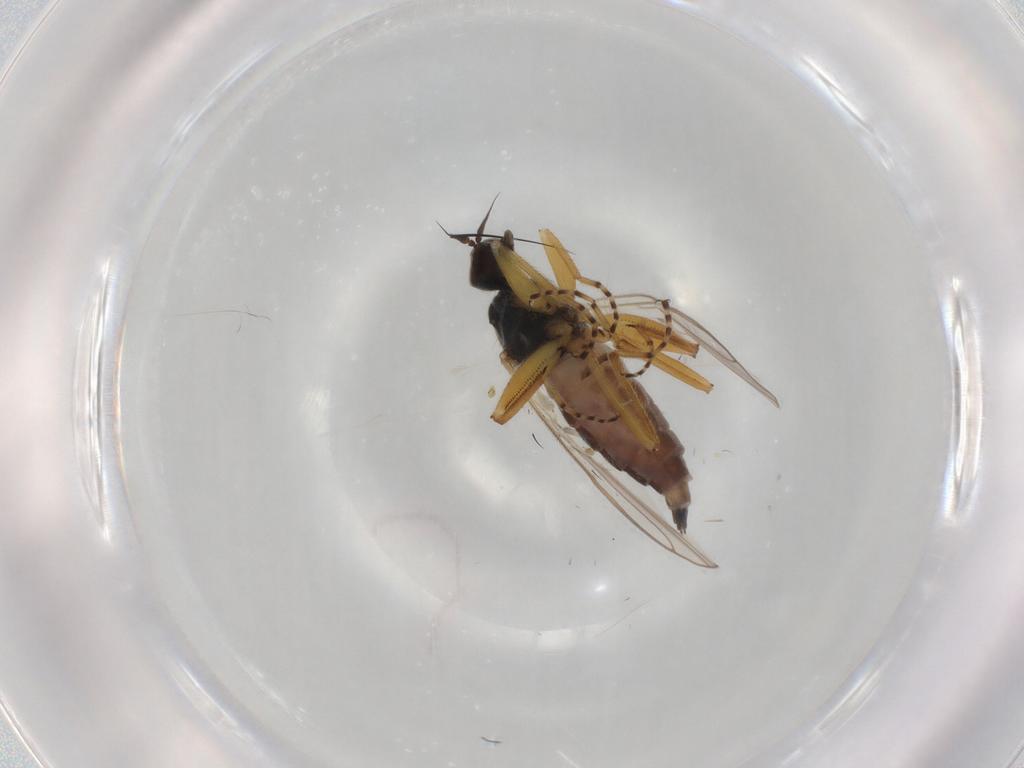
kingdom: Animalia
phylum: Arthropoda
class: Insecta
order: Diptera
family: Hybotidae
